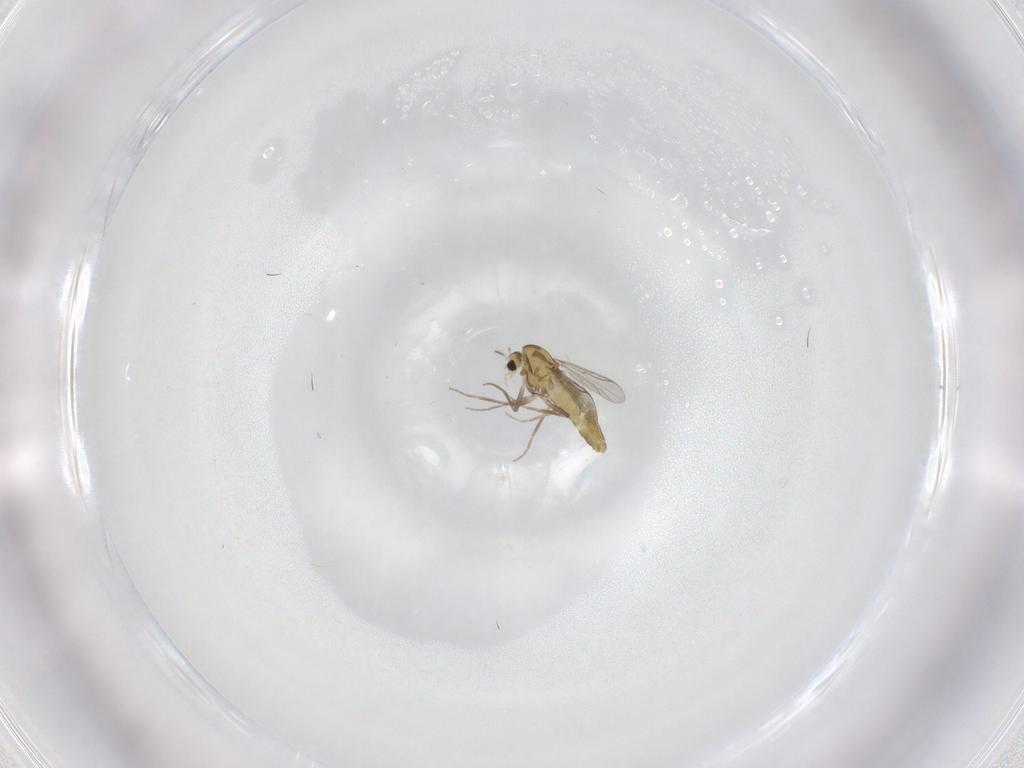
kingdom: Animalia
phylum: Arthropoda
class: Insecta
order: Diptera
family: Chironomidae
